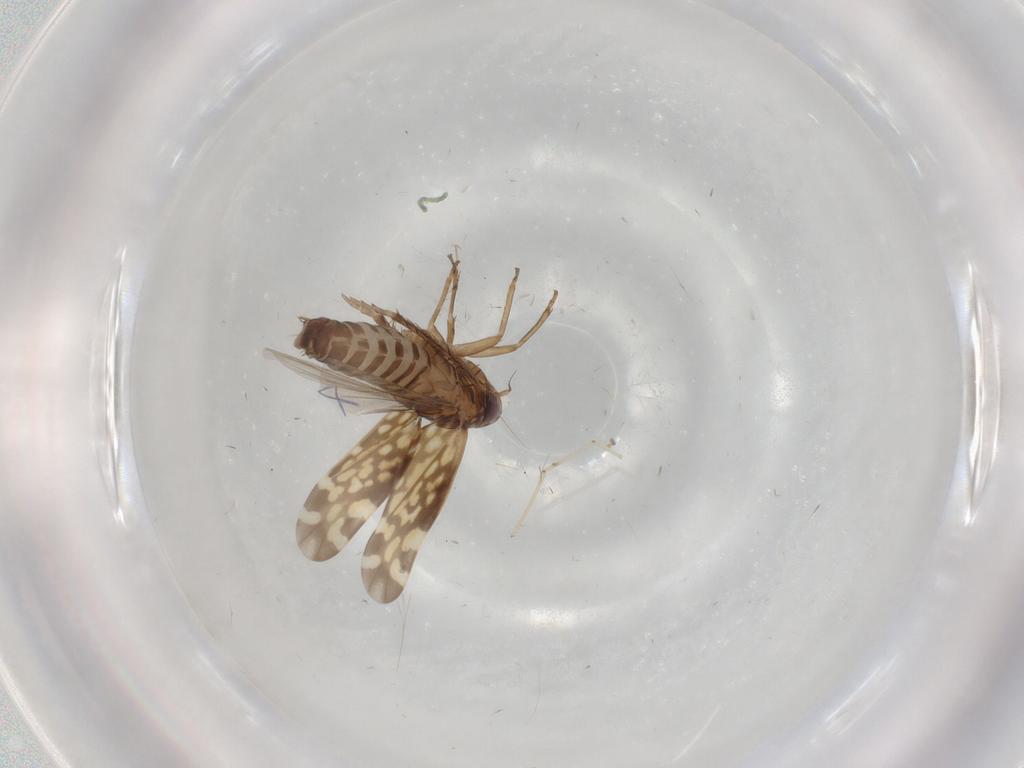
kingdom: Animalia
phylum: Arthropoda
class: Insecta
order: Hemiptera
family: Cicadellidae
